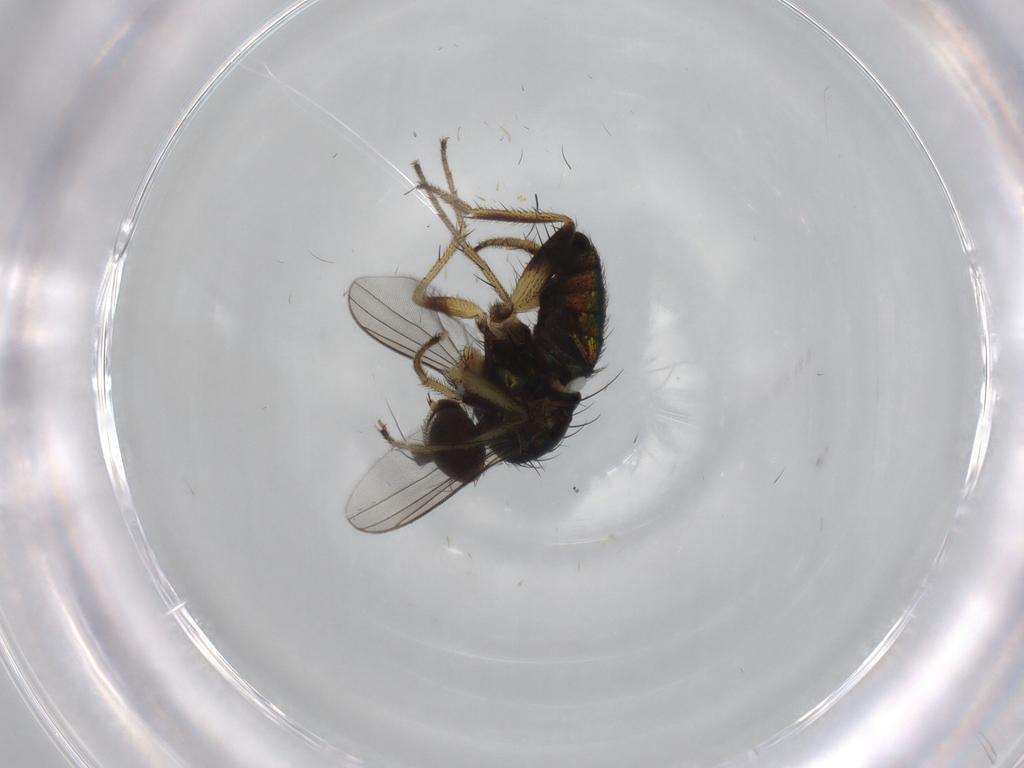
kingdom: Animalia
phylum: Arthropoda
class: Insecta
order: Diptera
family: Dolichopodidae
